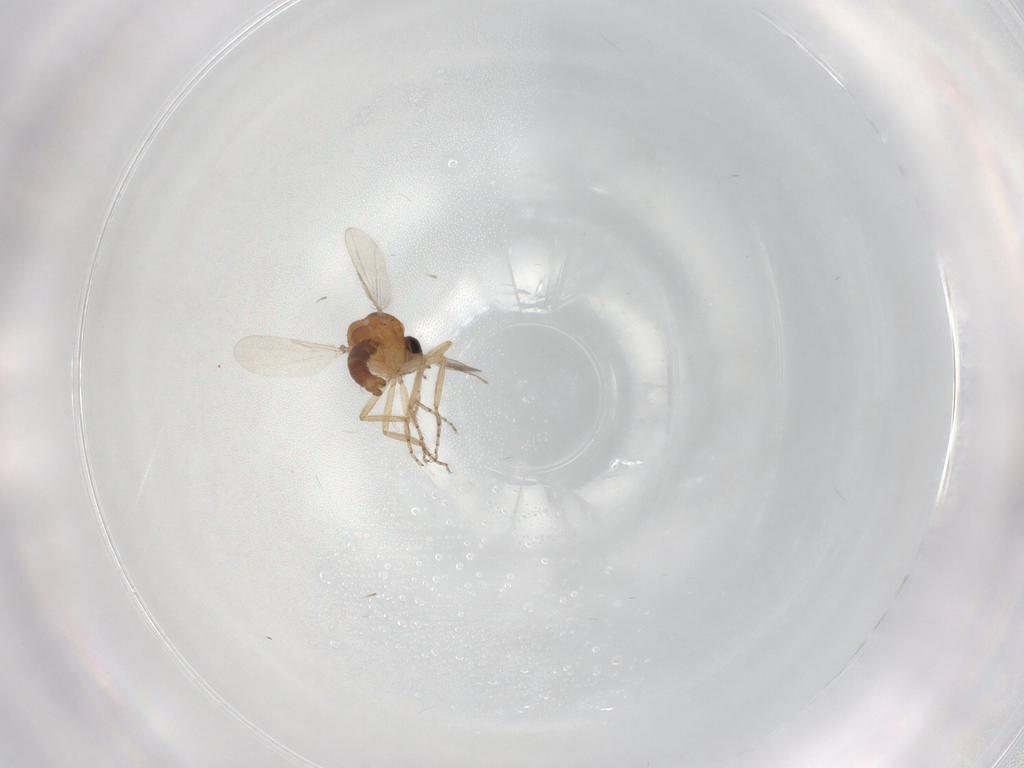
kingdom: Animalia
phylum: Arthropoda
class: Insecta
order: Diptera
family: Ceratopogonidae
